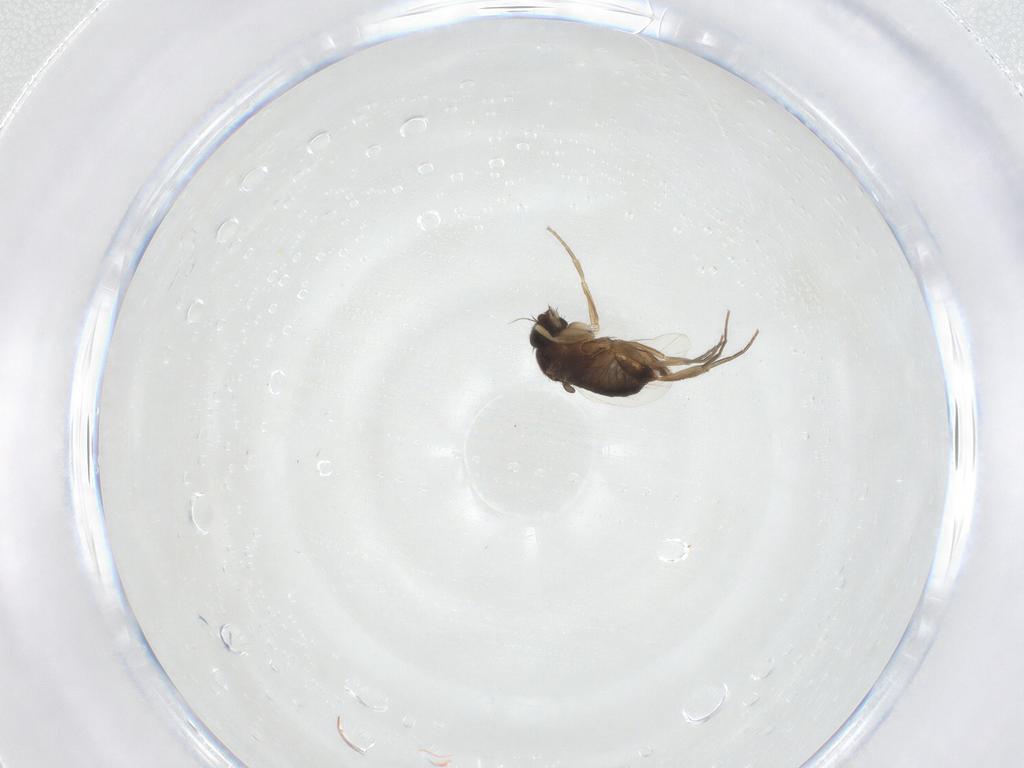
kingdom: Animalia
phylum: Arthropoda
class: Insecta
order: Diptera
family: Phoridae
